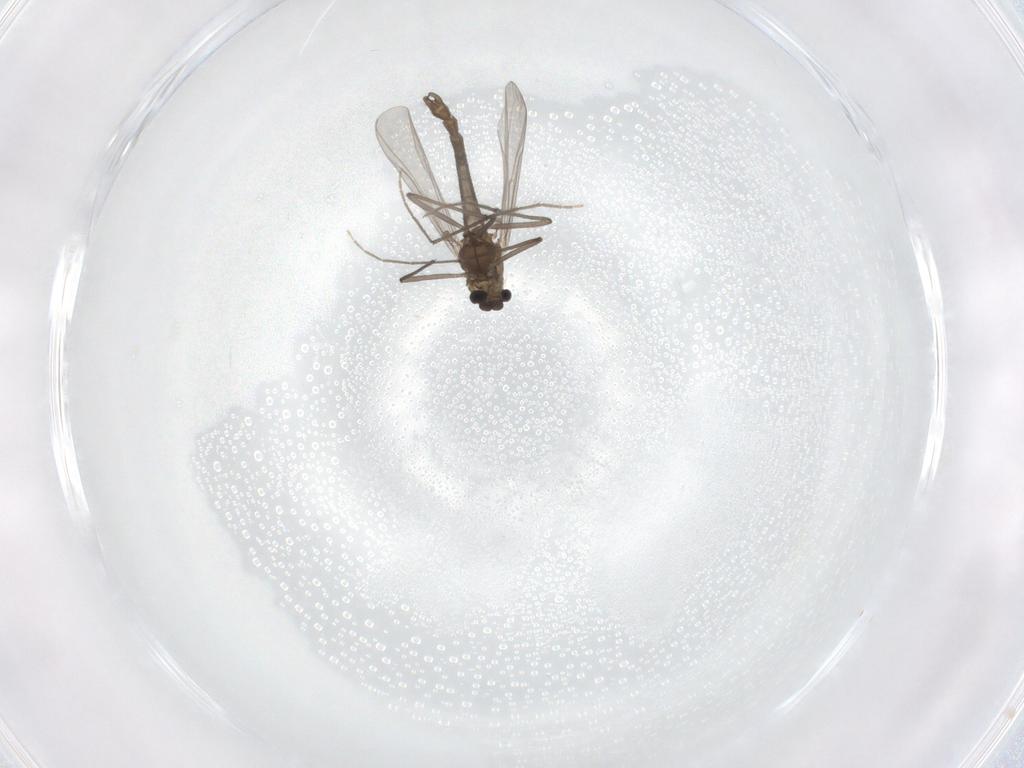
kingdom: Animalia
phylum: Arthropoda
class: Insecta
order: Diptera
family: Chironomidae
